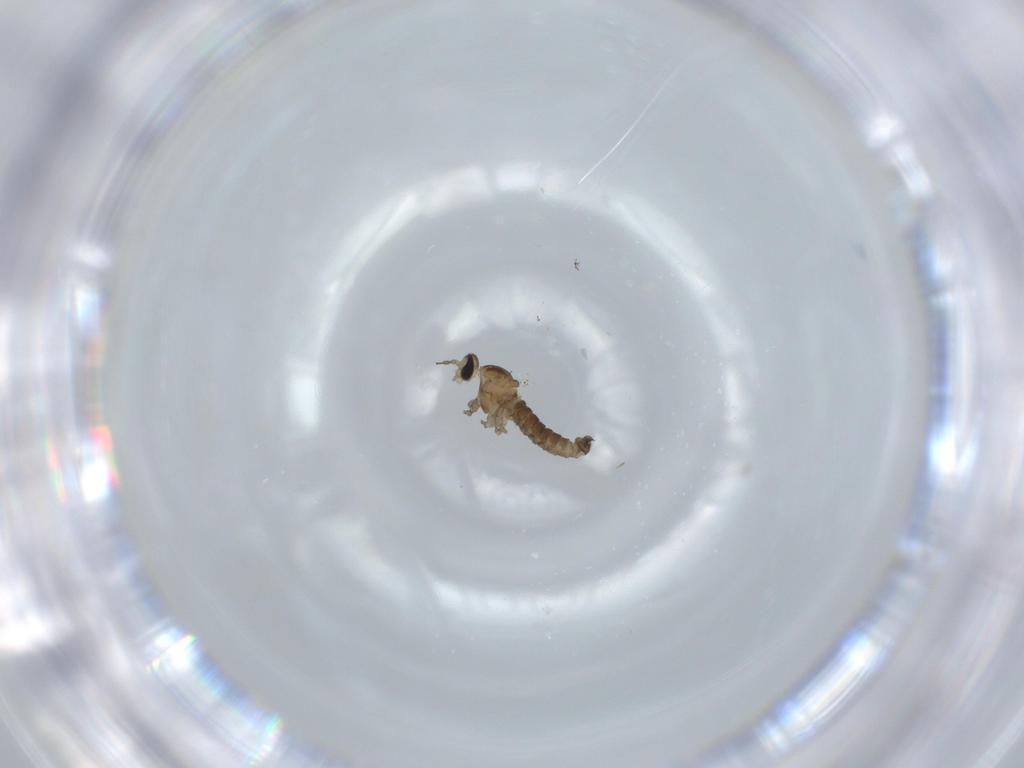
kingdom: Animalia
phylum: Arthropoda
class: Insecta
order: Diptera
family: Cecidomyiidae
